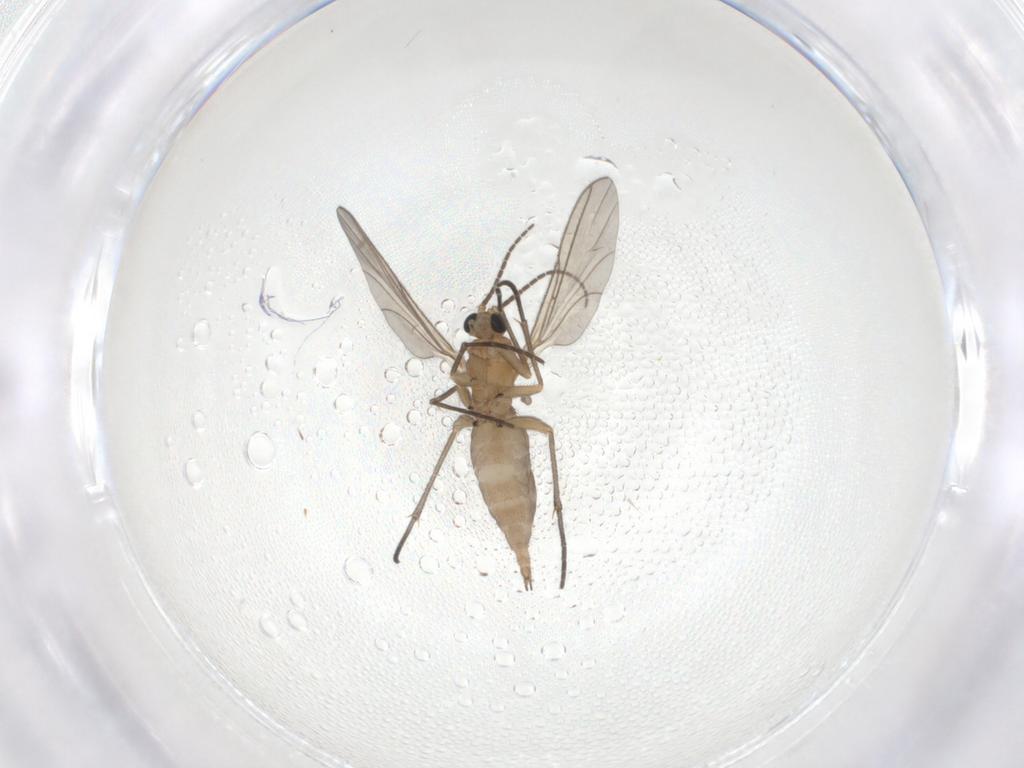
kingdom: Animalia
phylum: Arthropoda
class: Insecta
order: Diptera
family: Sciaridae
